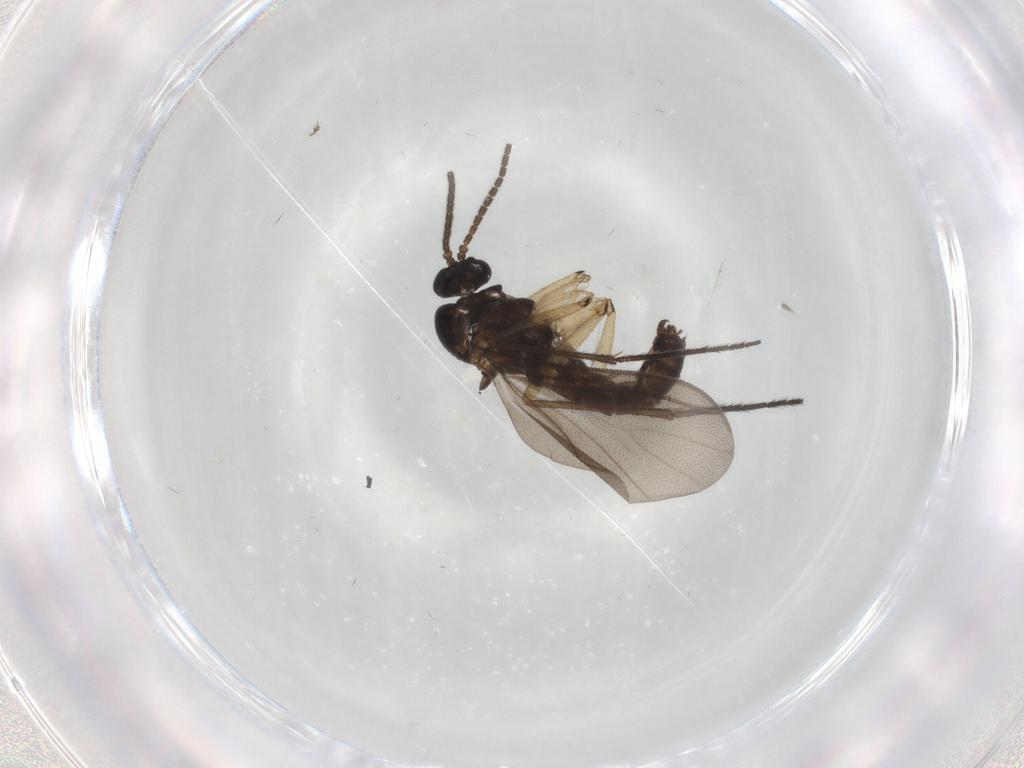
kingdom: Animalia
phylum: Arthropoda
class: Insecta
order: Diptera
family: Sciaridae
